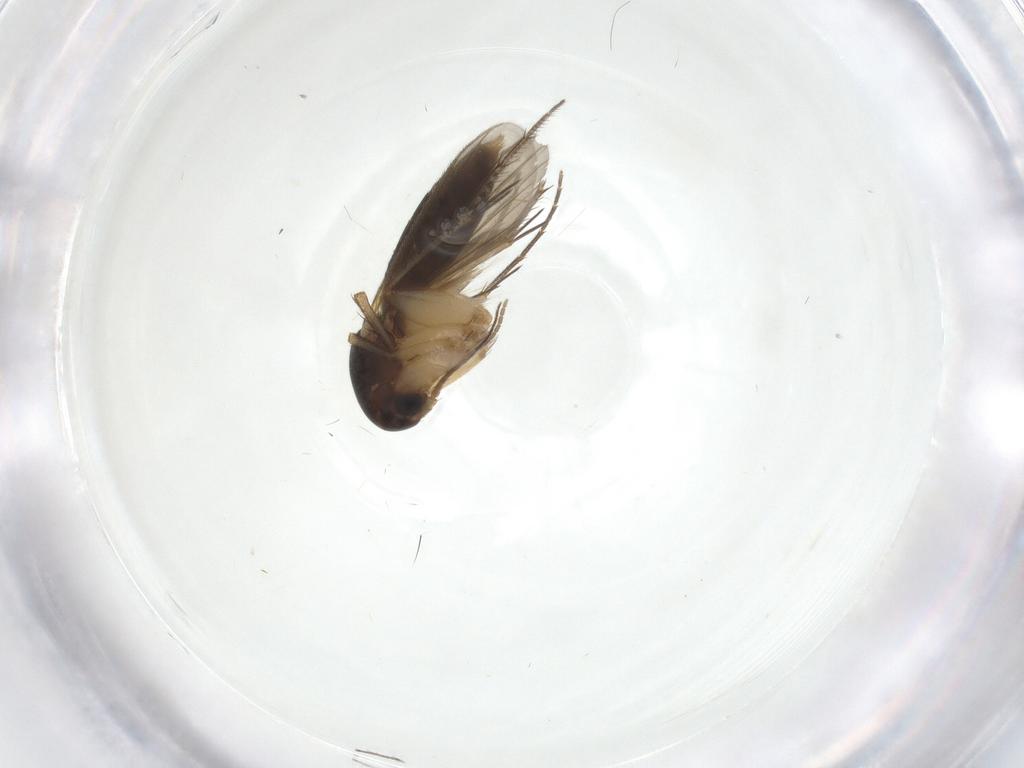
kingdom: Animalia
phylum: Arthropoda
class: Insecta
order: Diptera
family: Mycetophilidae
